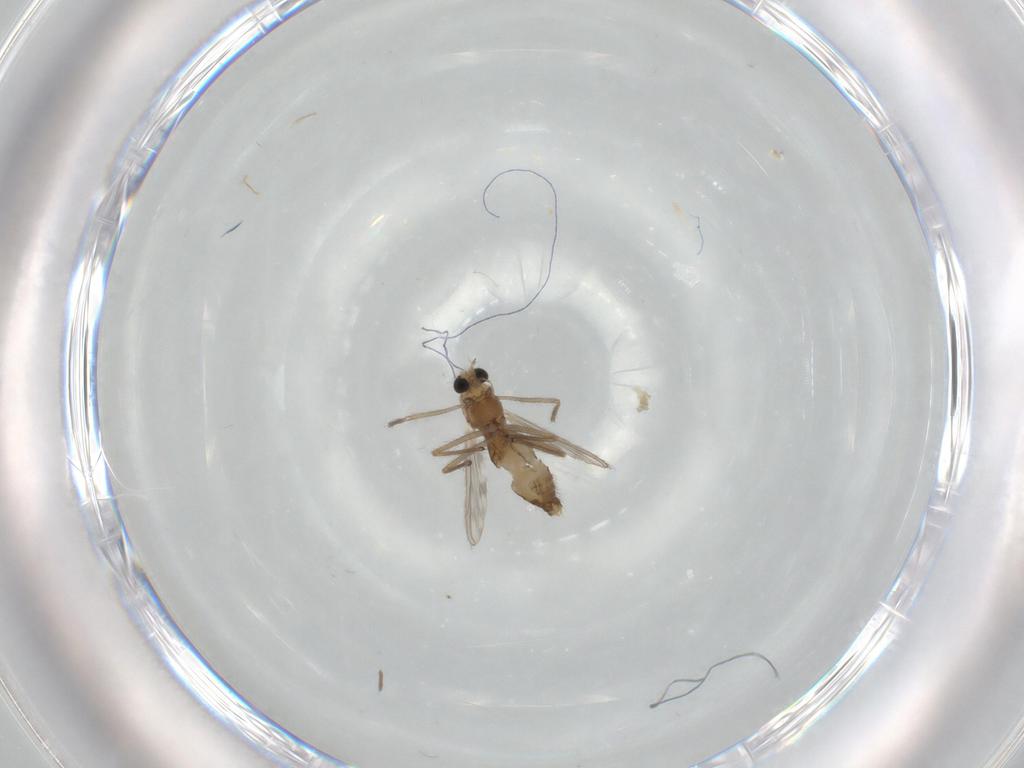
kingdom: Animalia
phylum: Arthropoda
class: Insecta
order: Diptera
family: Chironomidae
